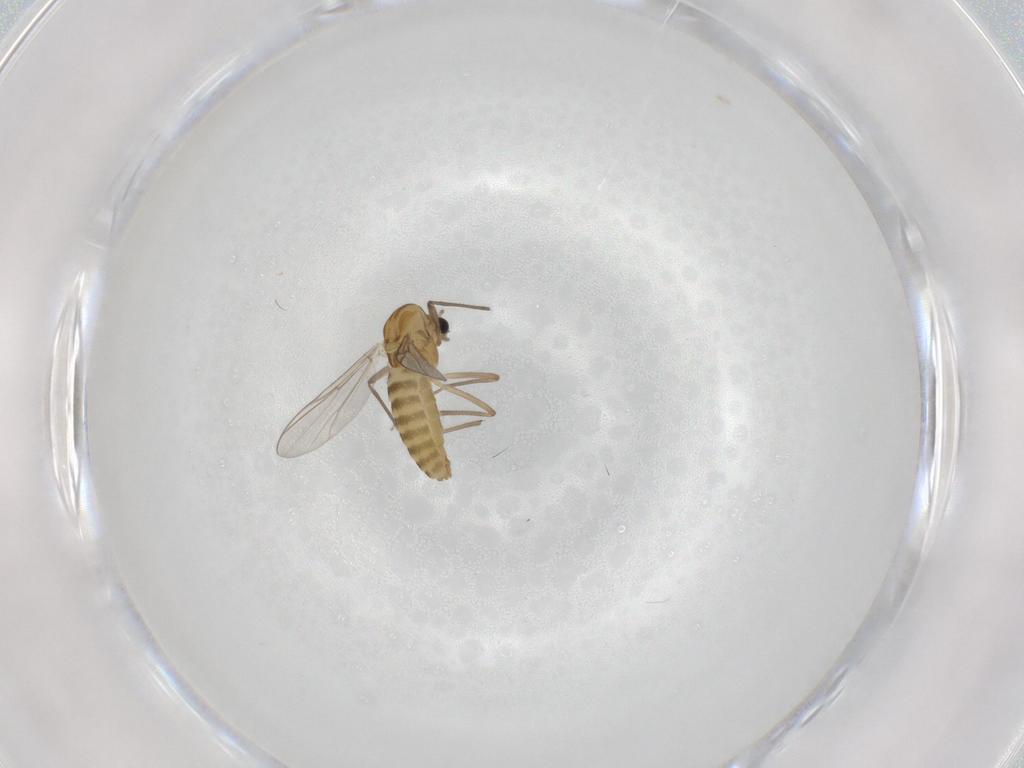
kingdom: Animalia
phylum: Arthropoda
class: Insecta
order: Diptera
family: Chironomidae
